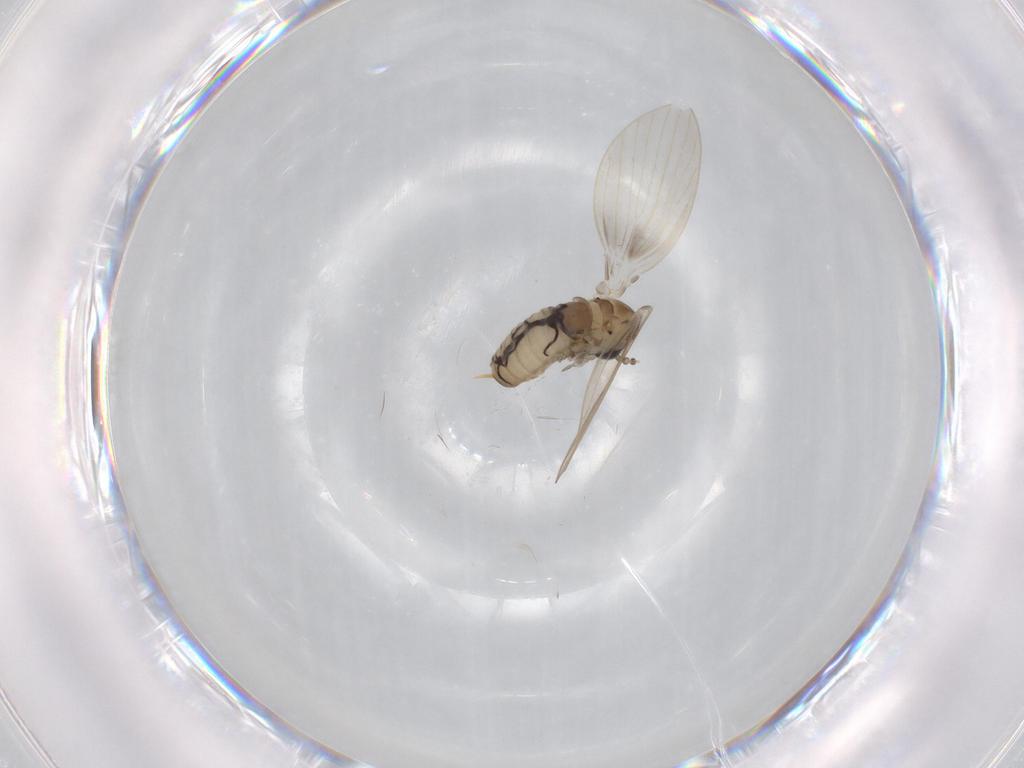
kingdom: Animalia
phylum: Arthropoda
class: Insecta
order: Diptera
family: Psychodidae
